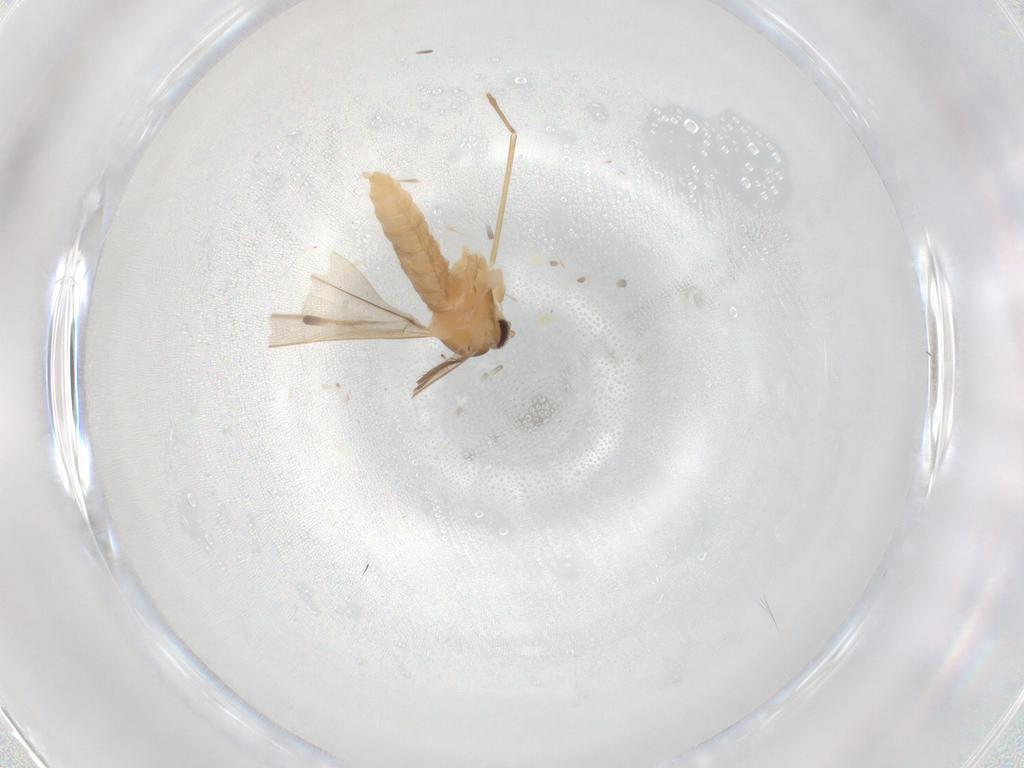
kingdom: Animalia
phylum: Arthropoda
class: Insecta
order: Diptera
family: Cecidomyiidae
